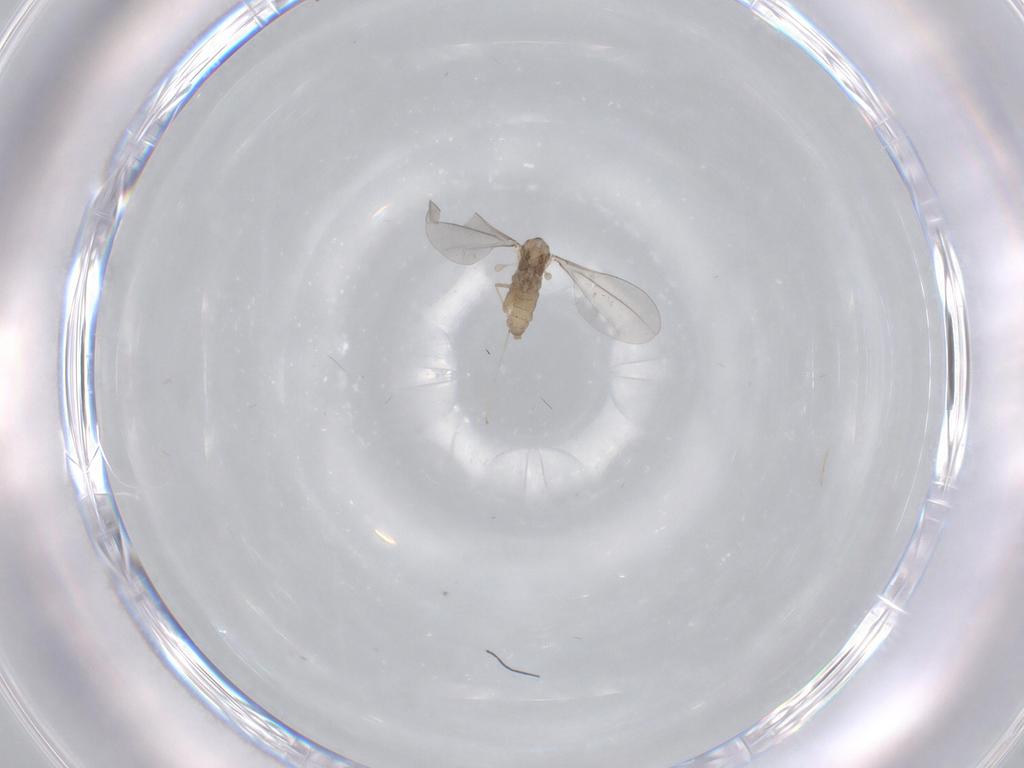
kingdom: Animalia
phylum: Arthropoda
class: Insecta
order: Diptera
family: Cecidomyiidae
